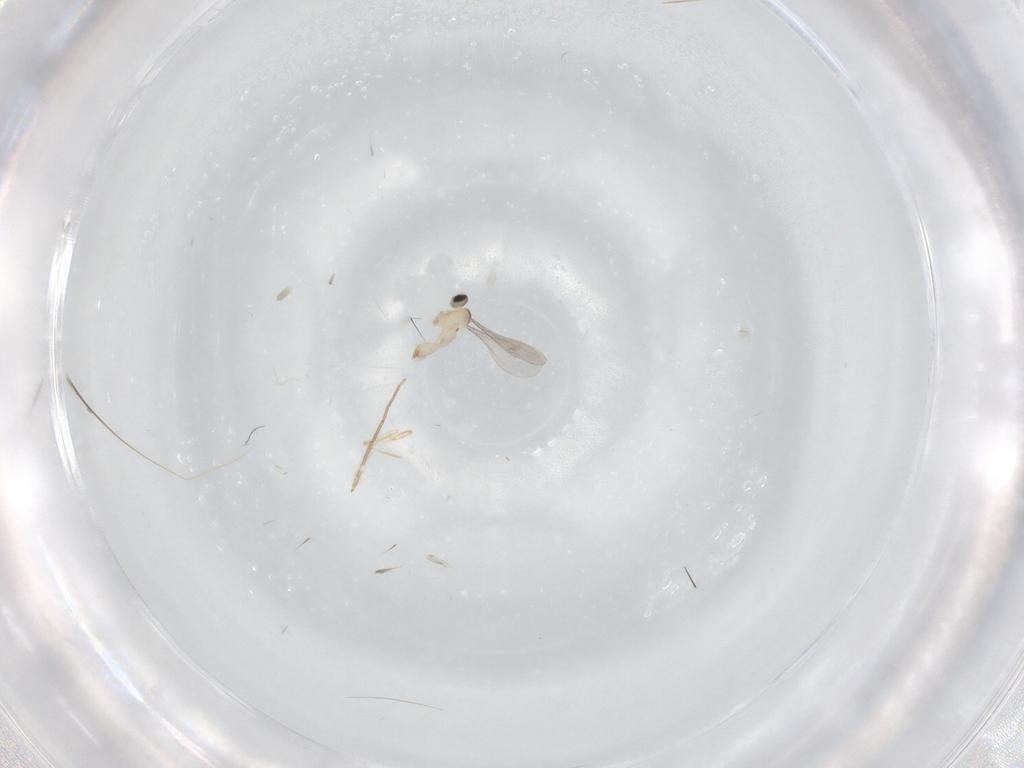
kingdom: Animalia
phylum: Arthropoda
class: Insecta
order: Diptera
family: Cecidomyiidae
